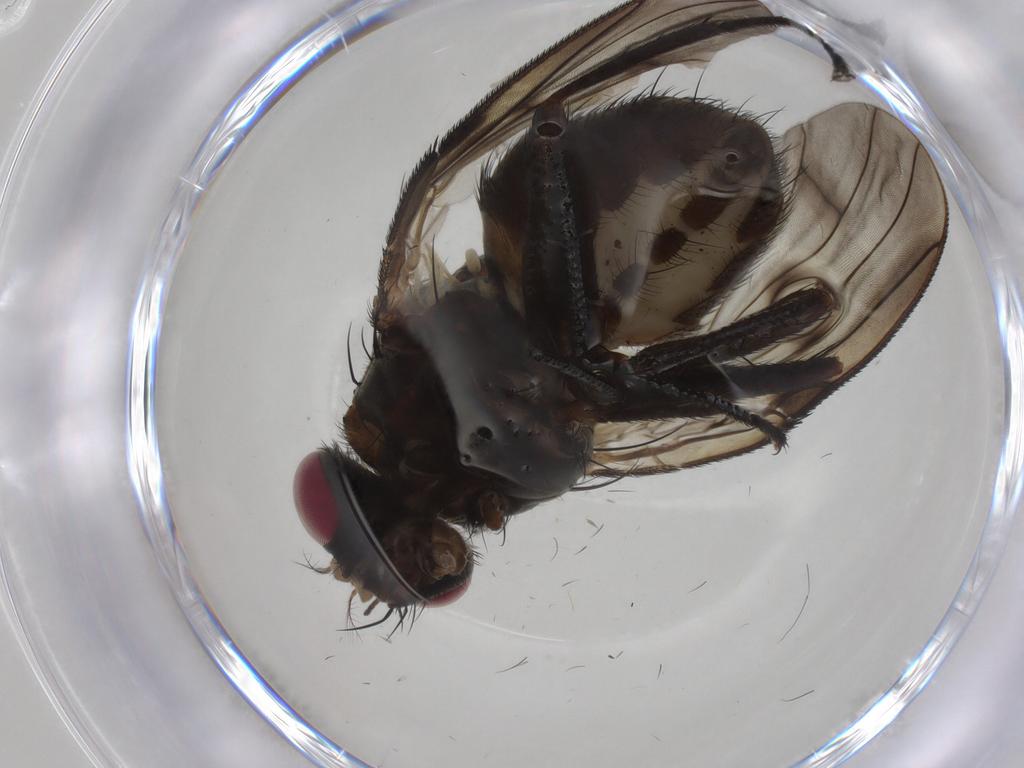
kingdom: Animalia
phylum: Arthropoda
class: Insecta
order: Diptera
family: Muscidae
